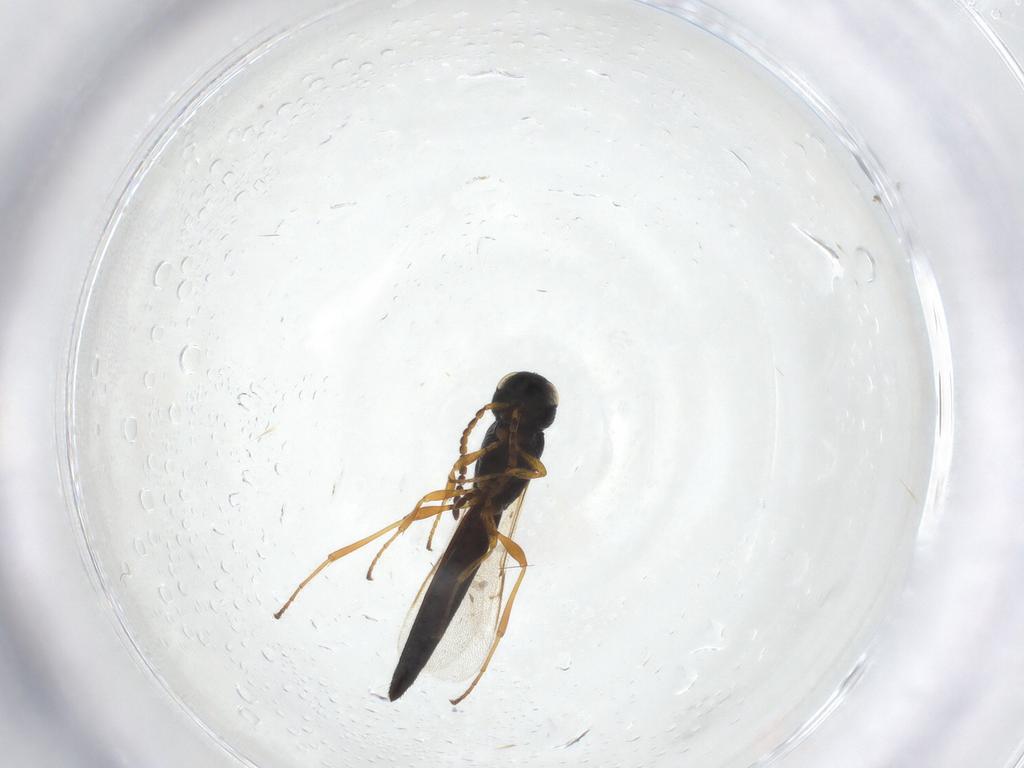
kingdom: Animalia
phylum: Arthropoda
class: Insecta
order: Hymenoptera
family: Scelionidae
